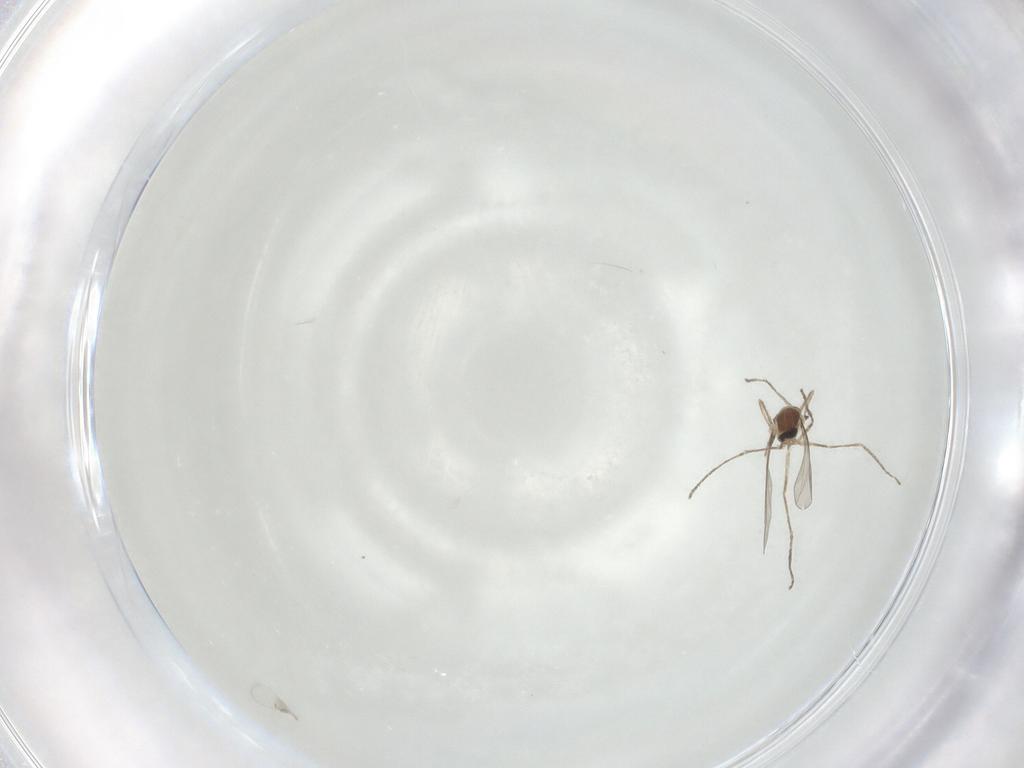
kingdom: Animalia
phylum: Arthropoda
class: Insecta
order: Diptera
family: Cecidomyiidae
